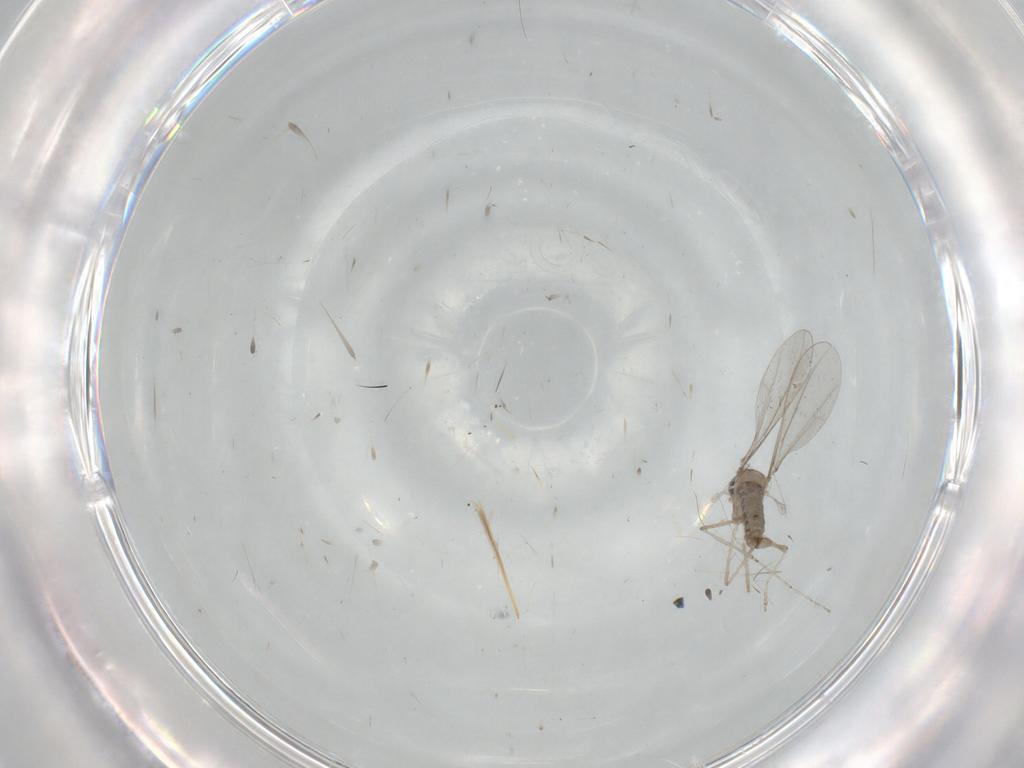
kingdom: Animalia
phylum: Arthropoda
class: Insecta
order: Diptera
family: Cecidomyiidae
